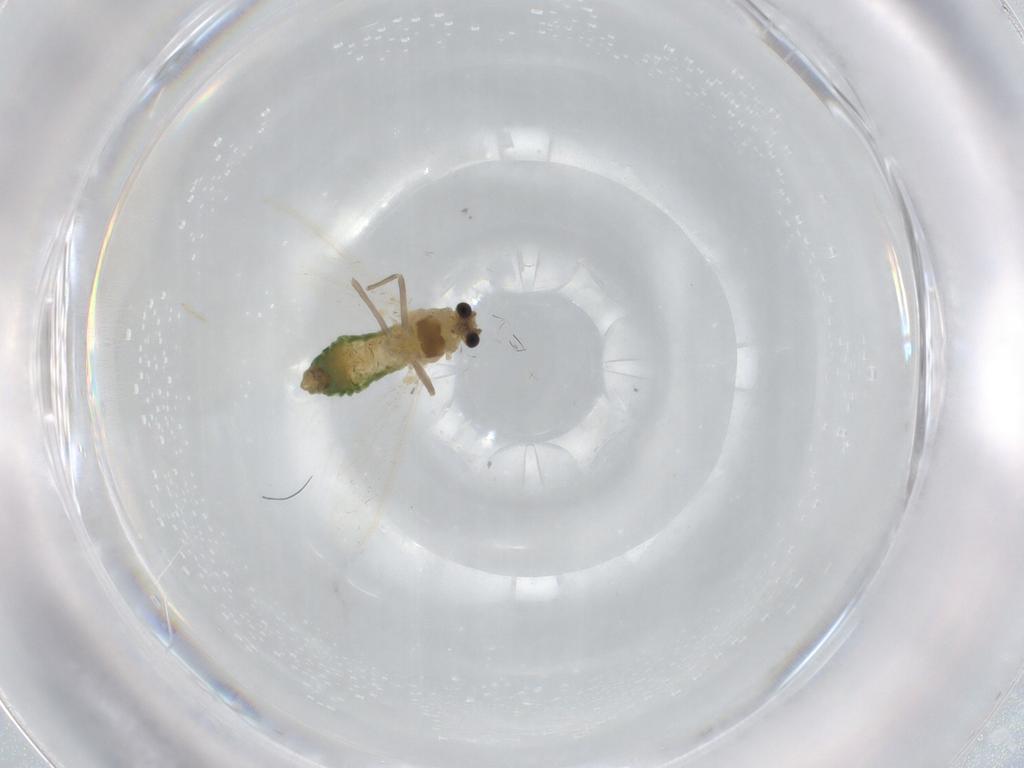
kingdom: Animalia
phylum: Arthropoda
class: Insecta
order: Diptera
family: Chironomidae
